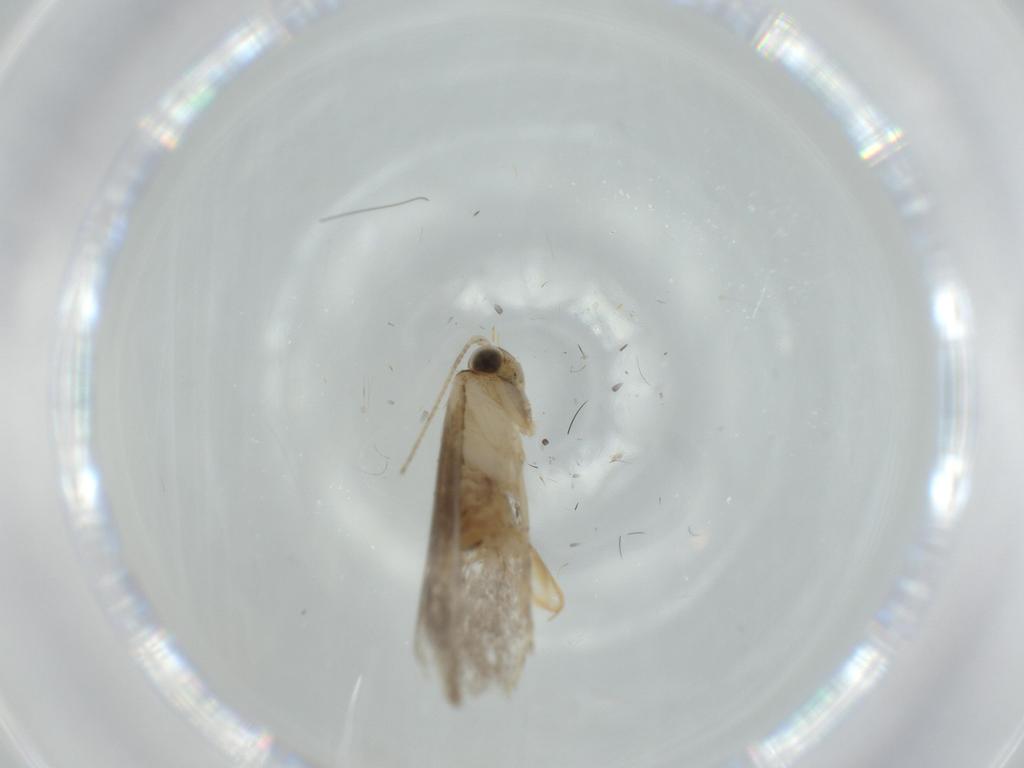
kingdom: Animalia
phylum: Arthropoda
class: Insecta
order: Lepidoptera
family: Tineidae
